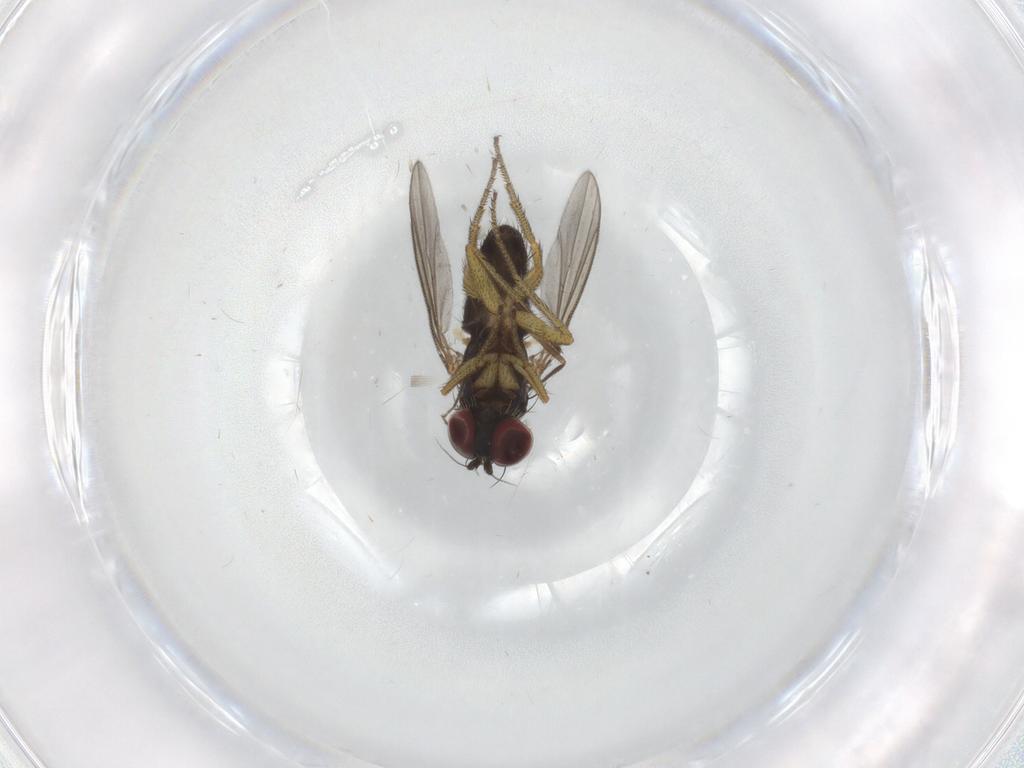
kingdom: Animalia
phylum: Arthropoda
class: Insecta
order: Diptera
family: Chironomidae
